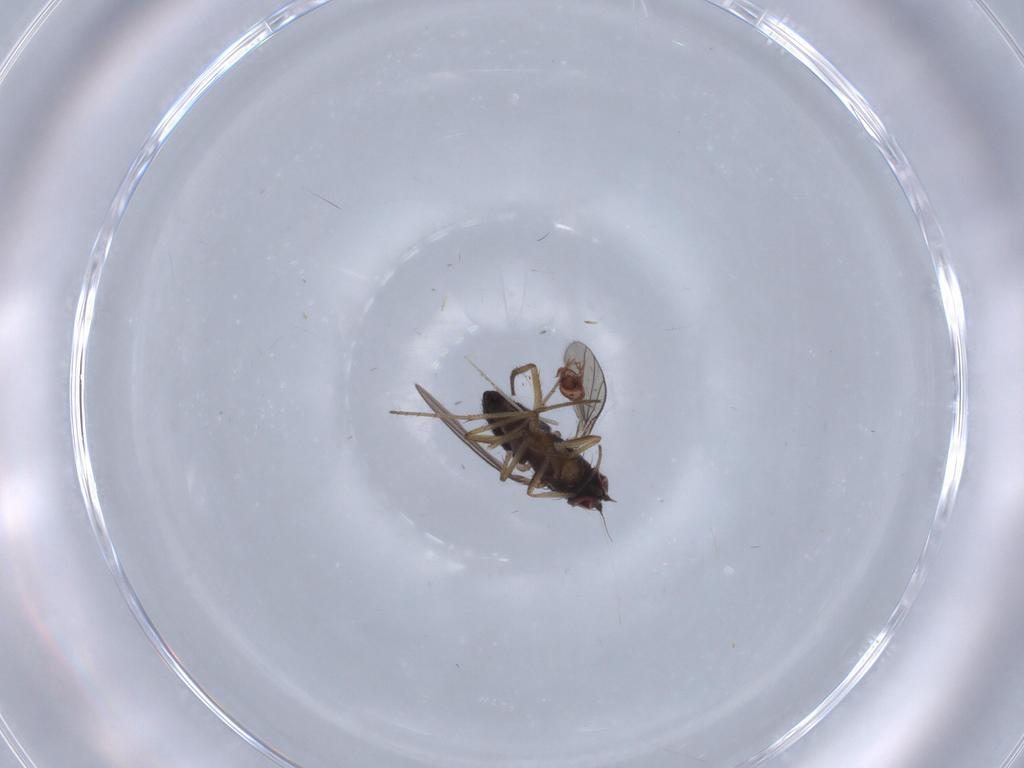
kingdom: Animalia
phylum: Arthropoda
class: Insecta
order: Diptera
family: Dolichopodidae
